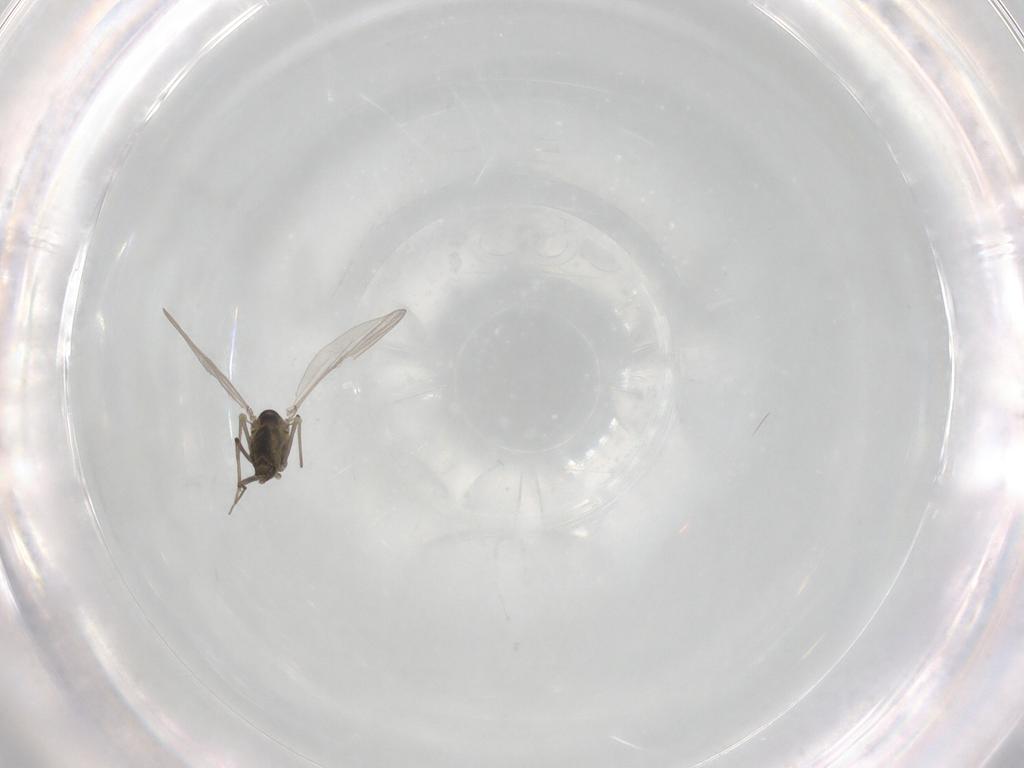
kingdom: Animalia
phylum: Arthropoda
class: Insecta
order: Diptera
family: Chironomidae
